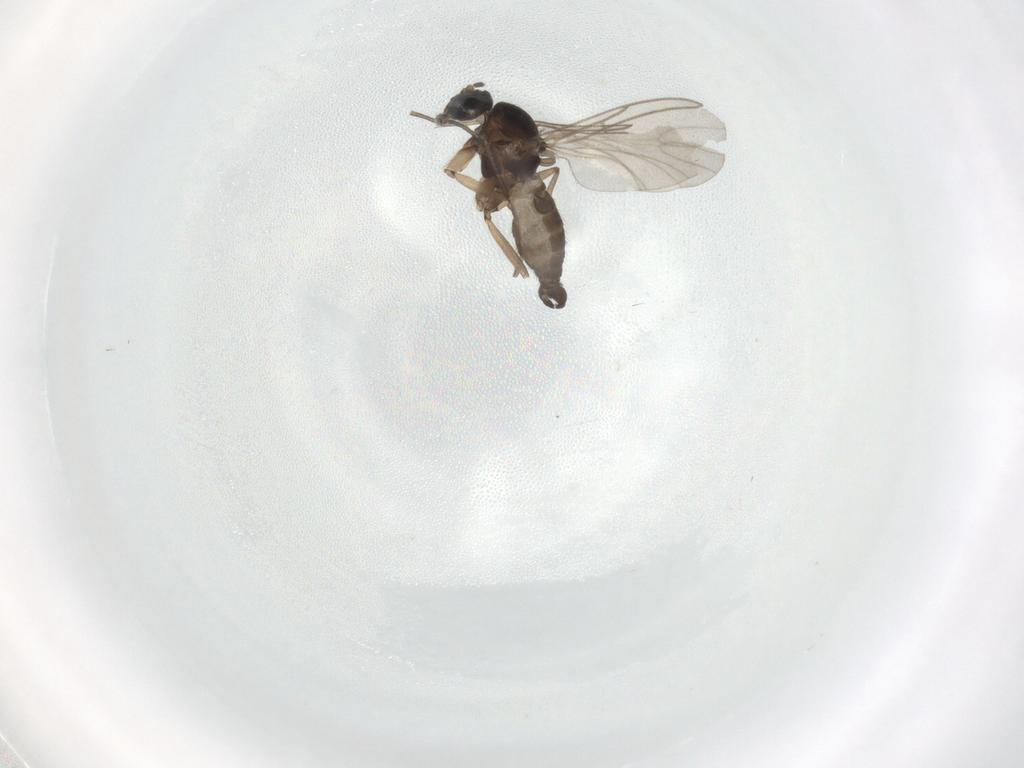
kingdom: Animalia
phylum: Arthropoda
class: Insecta
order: Diptera
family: Sciaridae
